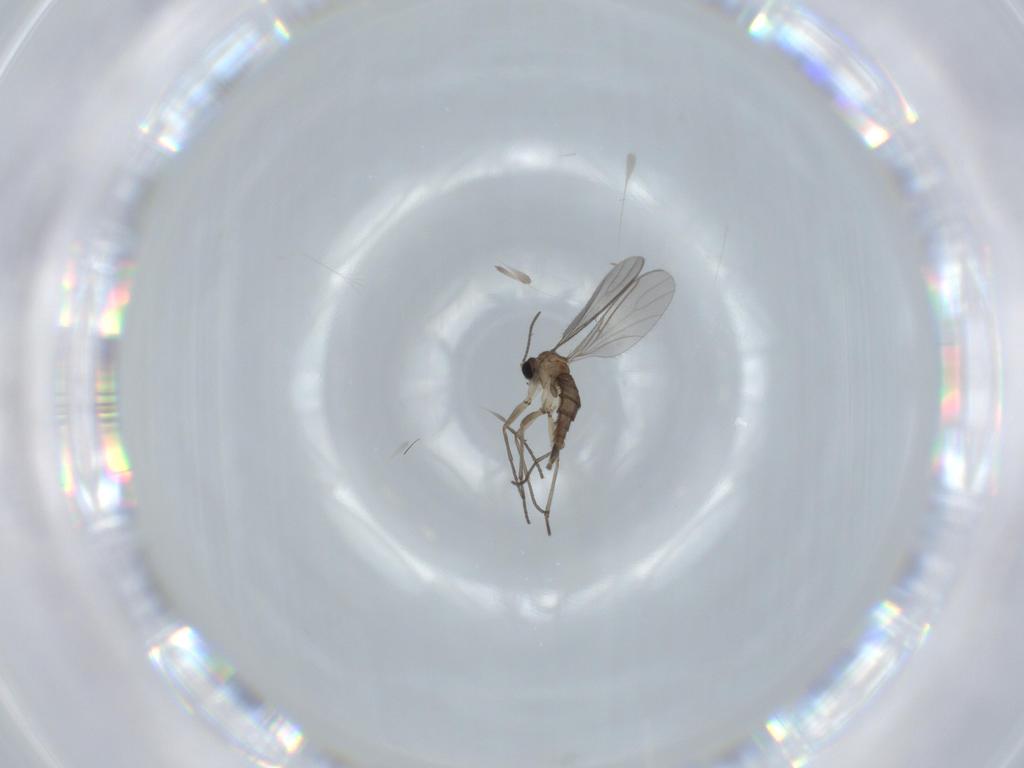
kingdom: Animalia
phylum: Arthropoda
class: Insecta
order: Diptera
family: Sciaridae
